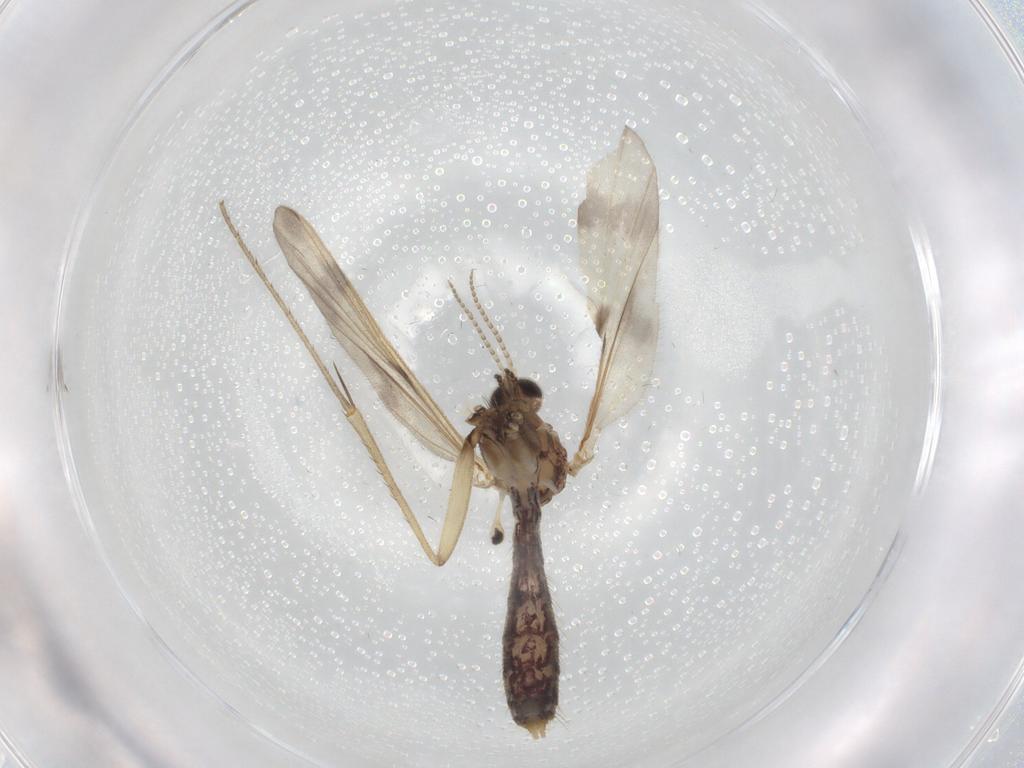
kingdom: Animalia
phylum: Arthropoda
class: Insecta
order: Diptera
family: Mycetophilidae
